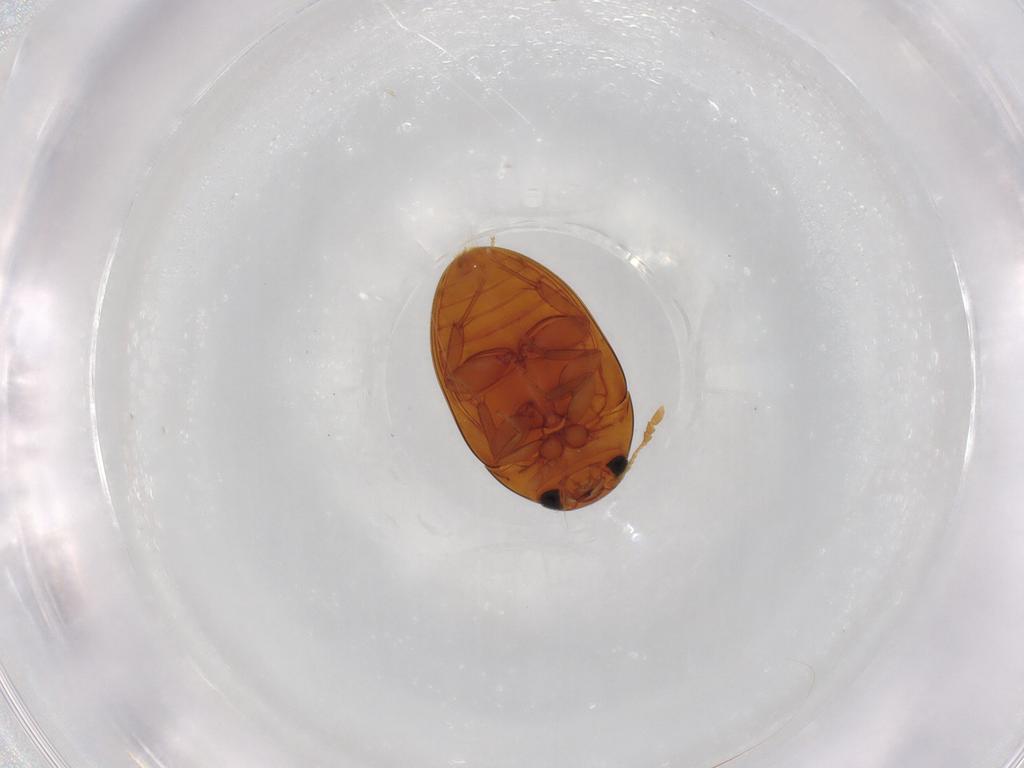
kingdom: Animalia
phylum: Arthropoda
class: Insecta
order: Coleoptera
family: Phalacridae
